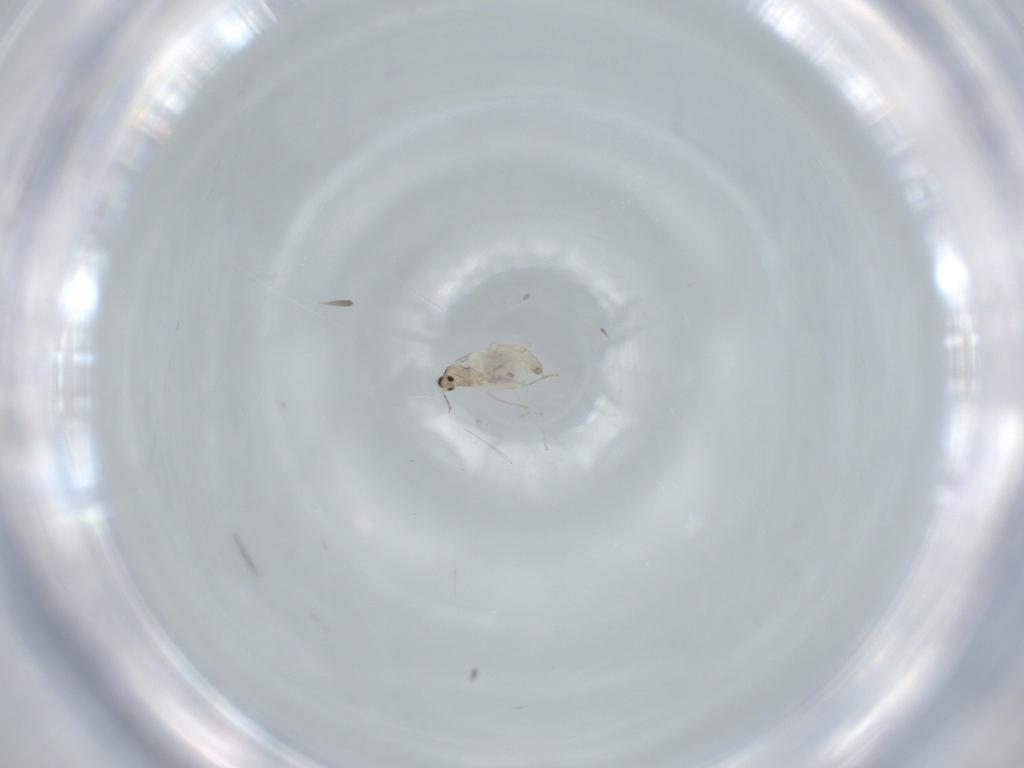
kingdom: Animalia
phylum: Arthropoda
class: Insecta
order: Diptera
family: Cecidomyiidae
